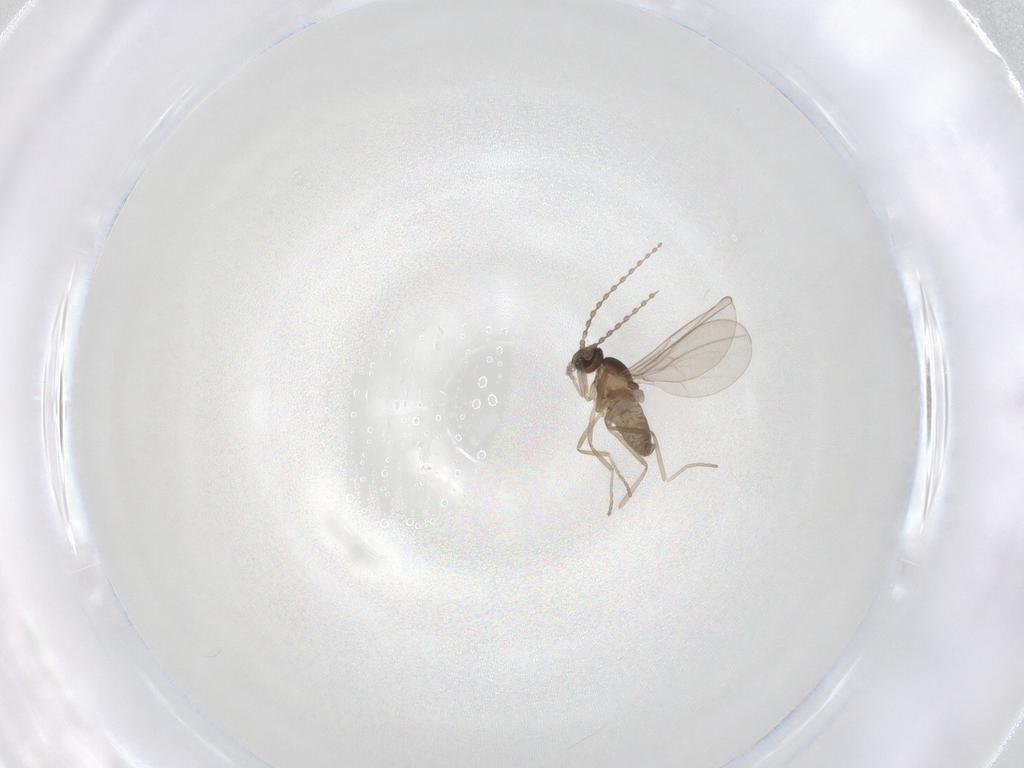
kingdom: Animalia
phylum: Arthropoda
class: Insecta
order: Diptera
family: Cecidomyiidae
